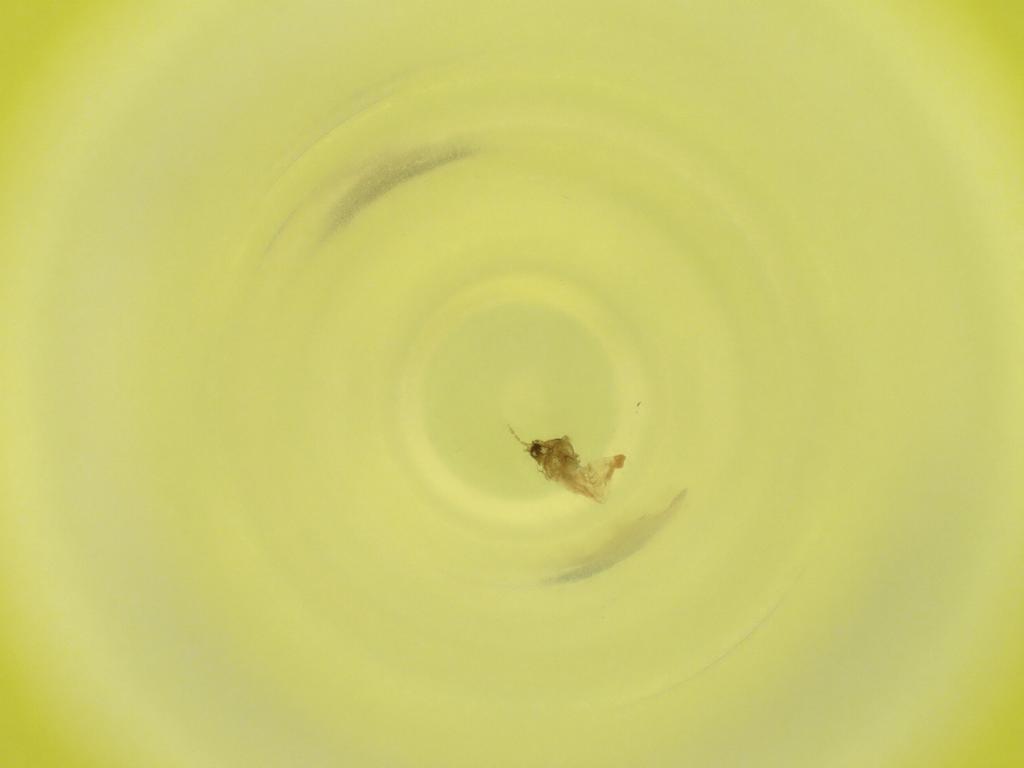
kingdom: Animalia
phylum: Arthropoda
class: Insecta
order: Diptera
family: Cecidomyiidae
